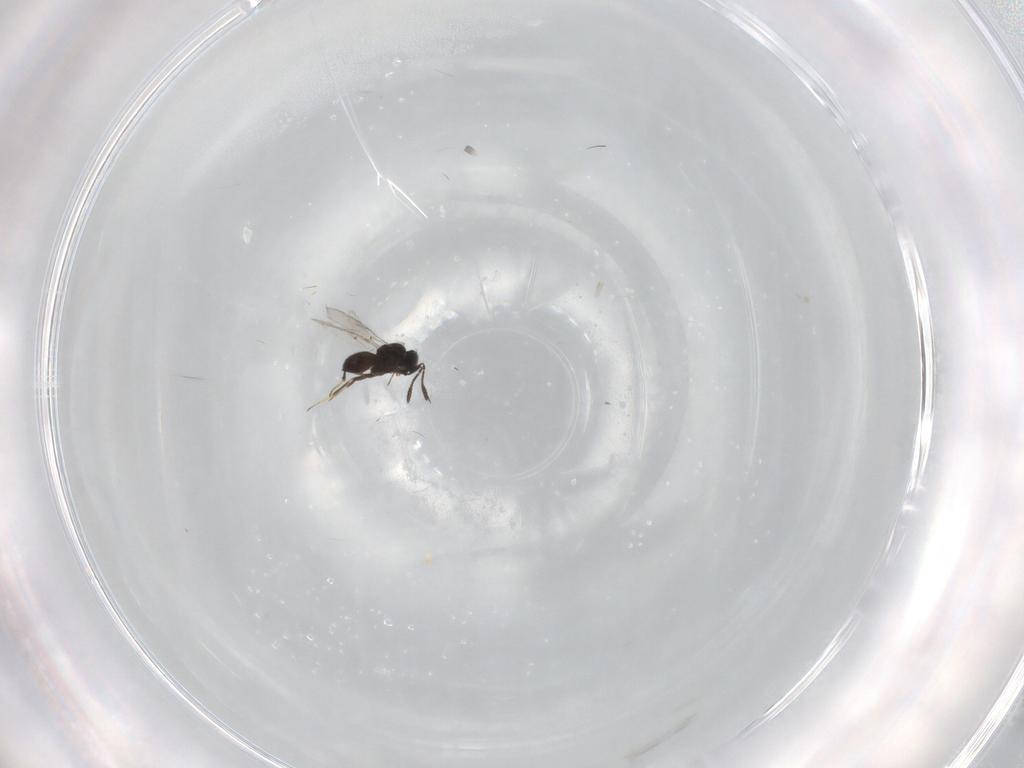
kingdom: Animalia
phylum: Arthropoda
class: Insecta
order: Hymenoptera
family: Scelionidae
